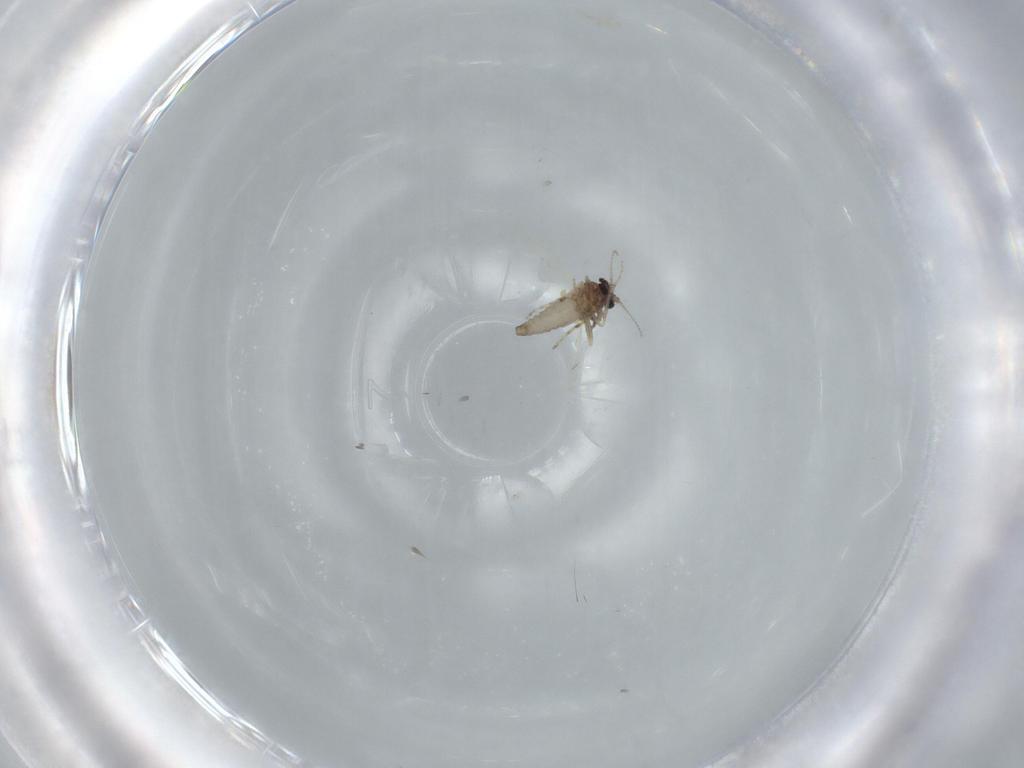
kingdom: Animalia
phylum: Arthropoda
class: Insecta
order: Diptera
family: Ceratopogonidae
